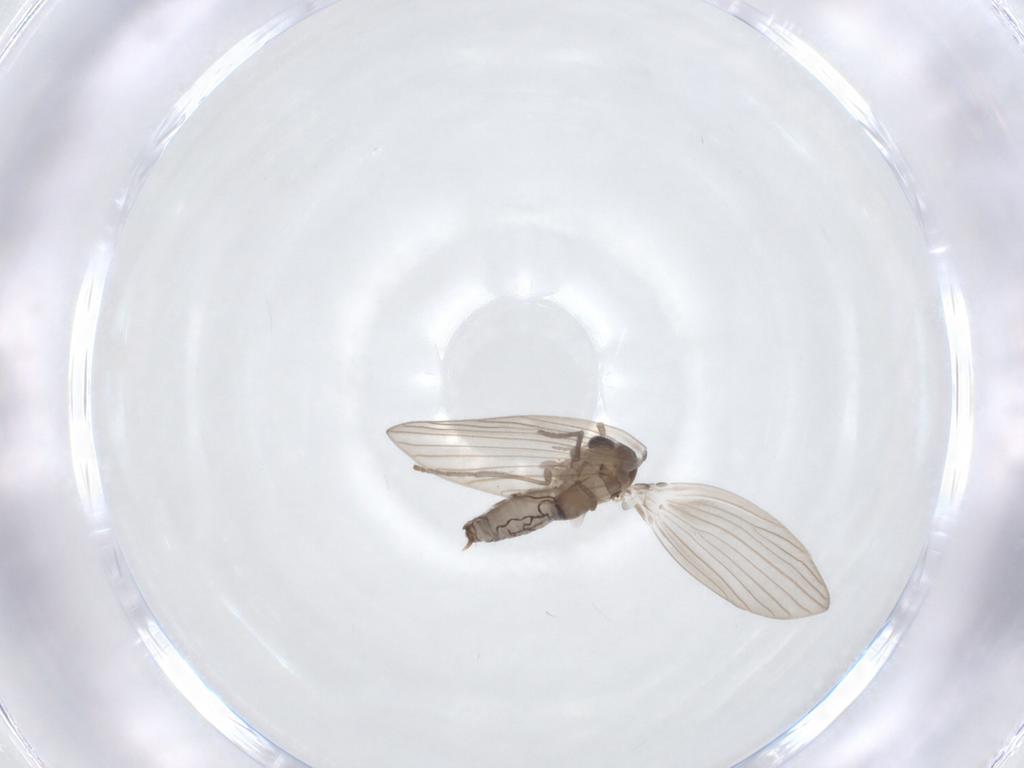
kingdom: Animalia
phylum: Arthropoda
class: Insecta
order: Diptera
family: Psychodidae
